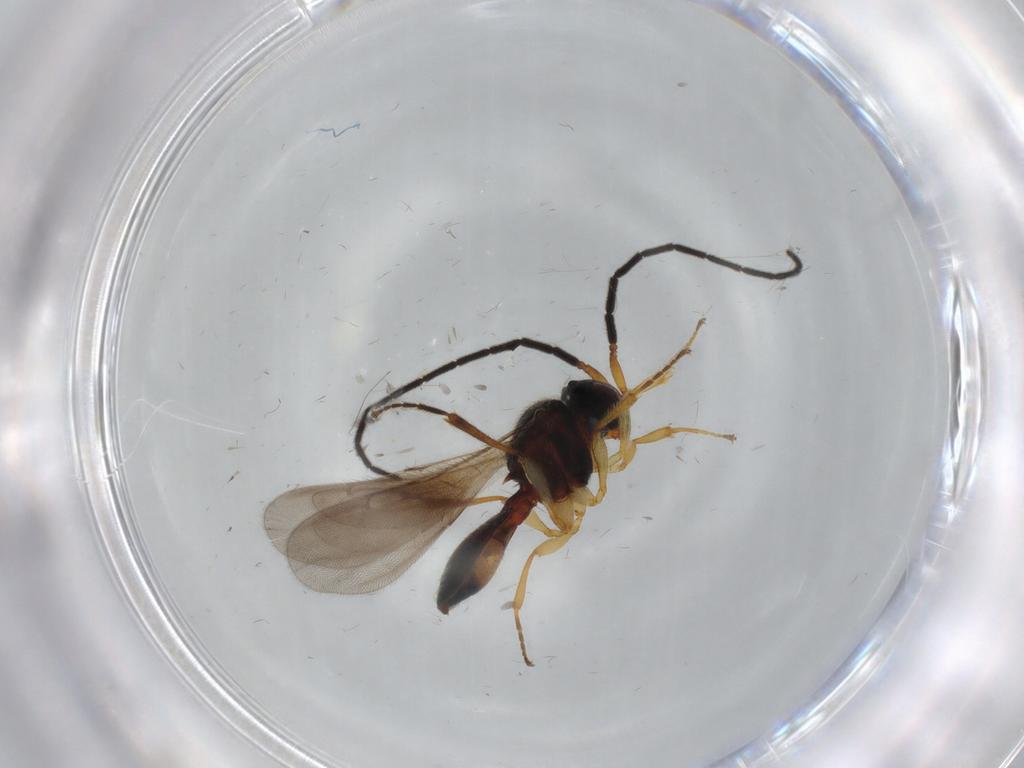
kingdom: Animalia
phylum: Arthropoda
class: Insecta
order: Hymenoptera
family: Scelionidae
